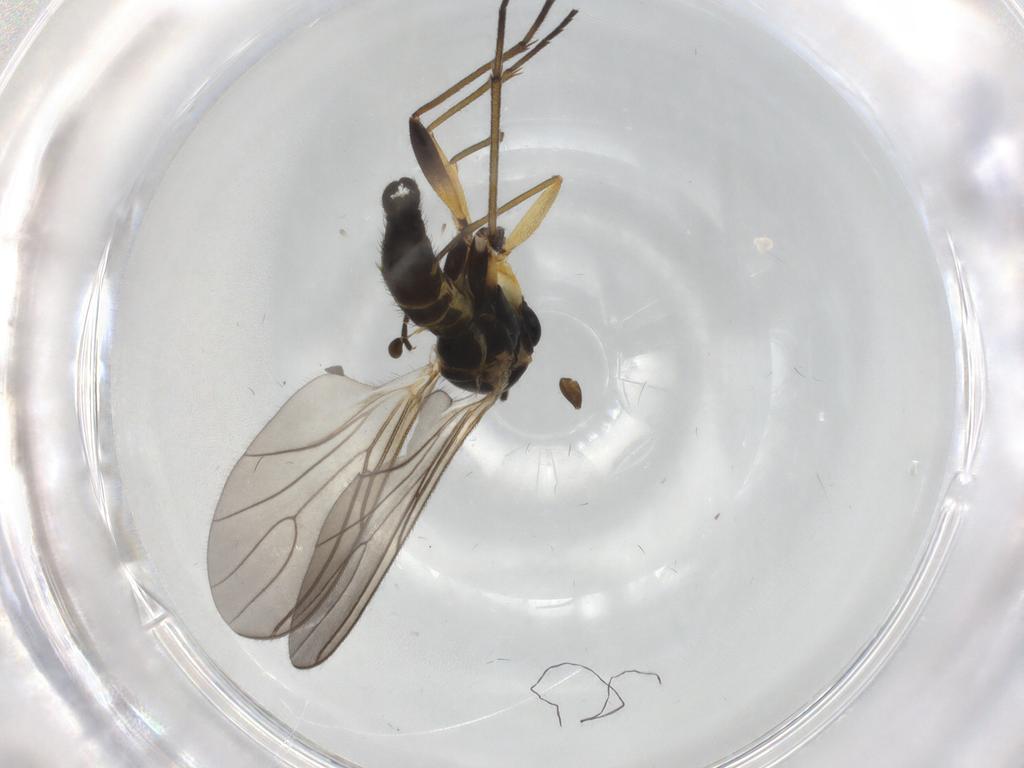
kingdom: Animalia
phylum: Arthropoda
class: Insecta
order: Diptera
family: Sciaridae
